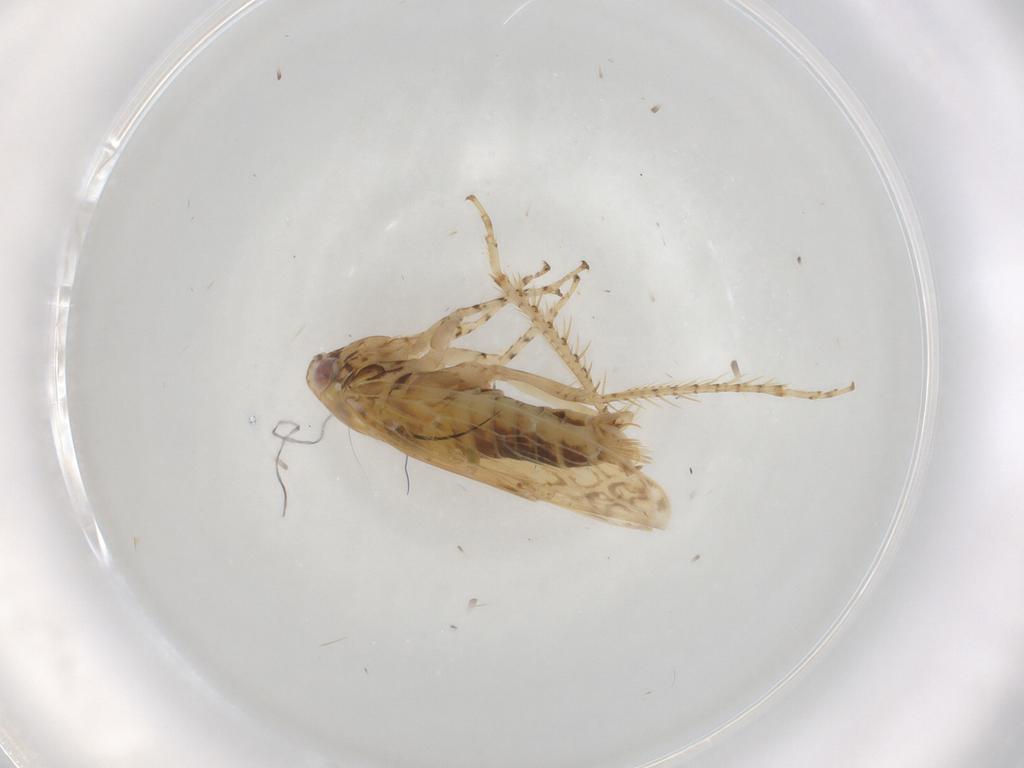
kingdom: Animalia
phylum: Arthropoda
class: Insecta
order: Hemiptera
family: Cicadellidae
